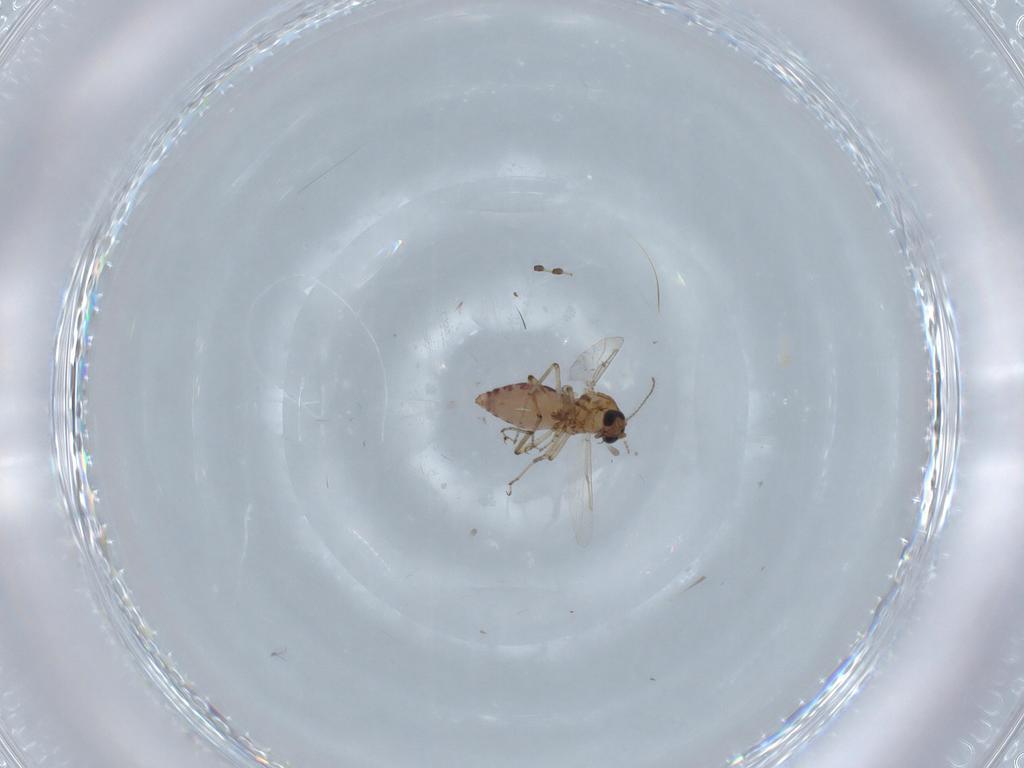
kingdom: Animalia
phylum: Arthropoda
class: Insecta
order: Diptera
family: Ceratopogonidae
